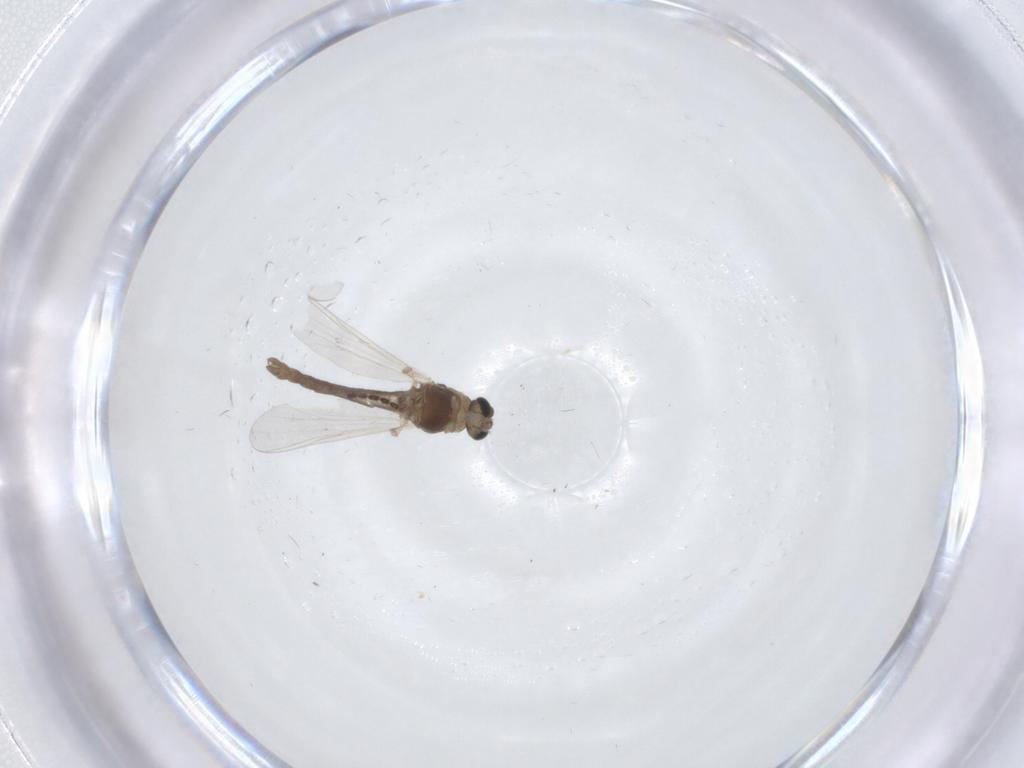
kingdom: Animalia
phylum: Arthropoda
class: Insecta
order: Diptera
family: Chironomidae
